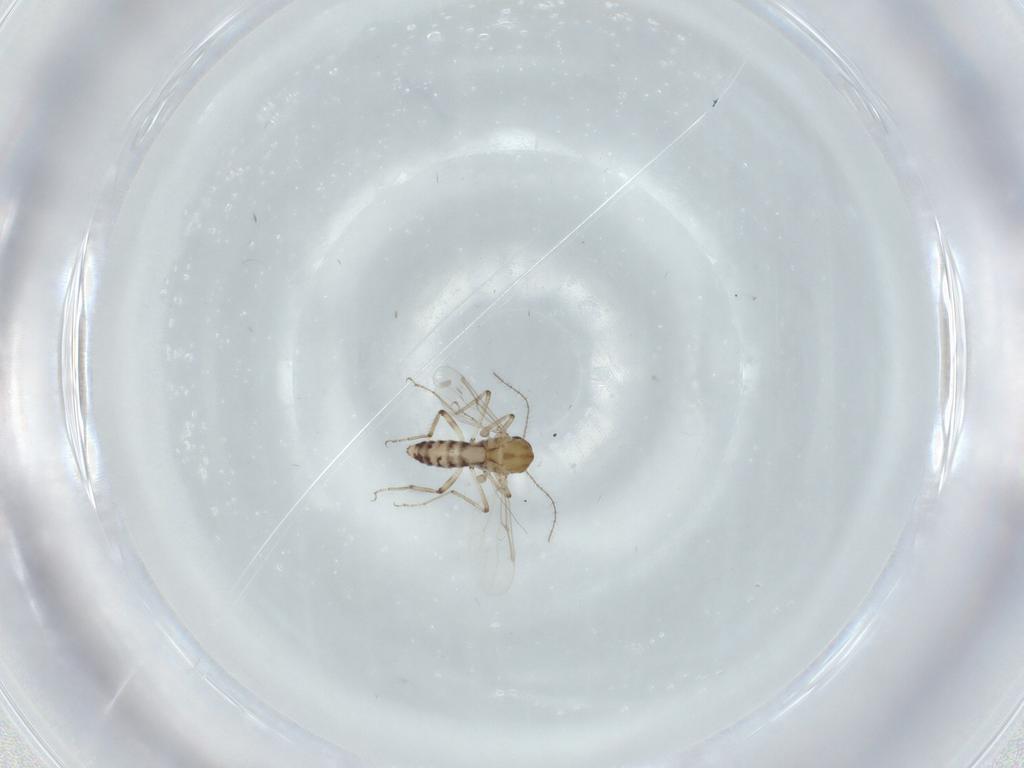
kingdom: Animalia
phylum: Arthropoda
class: Insecta
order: Diptera
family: Ceratopogonidae
